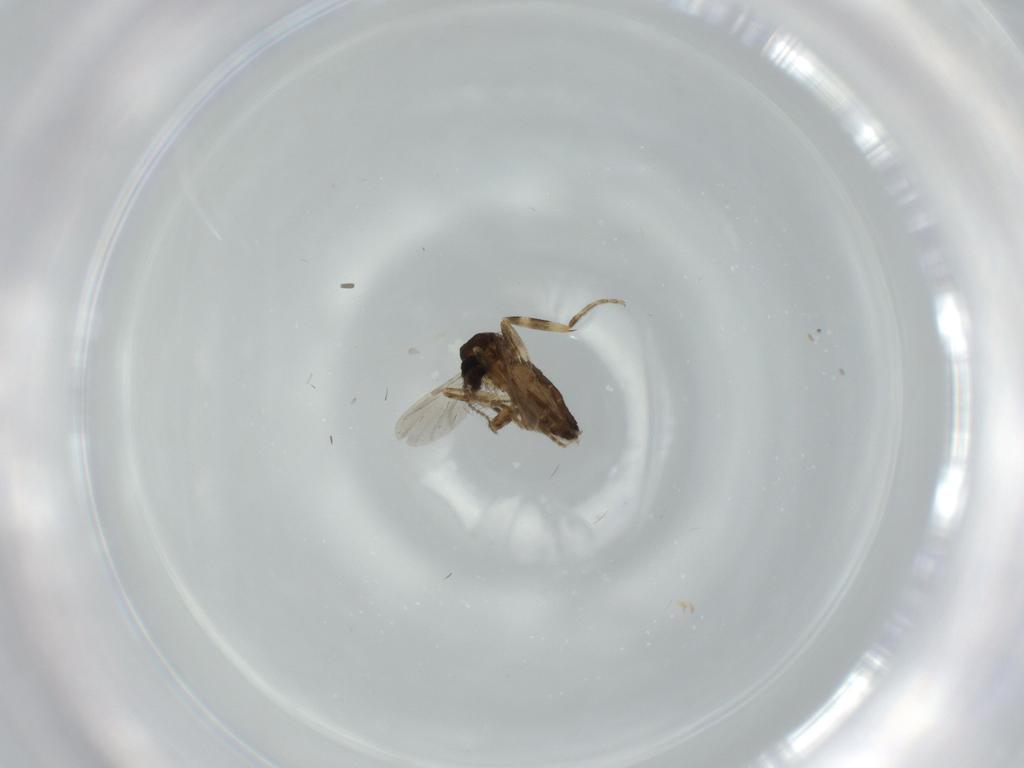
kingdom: Animalia
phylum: Arthropoda
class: Insecta
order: Diptera
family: Ceratopogonidae
